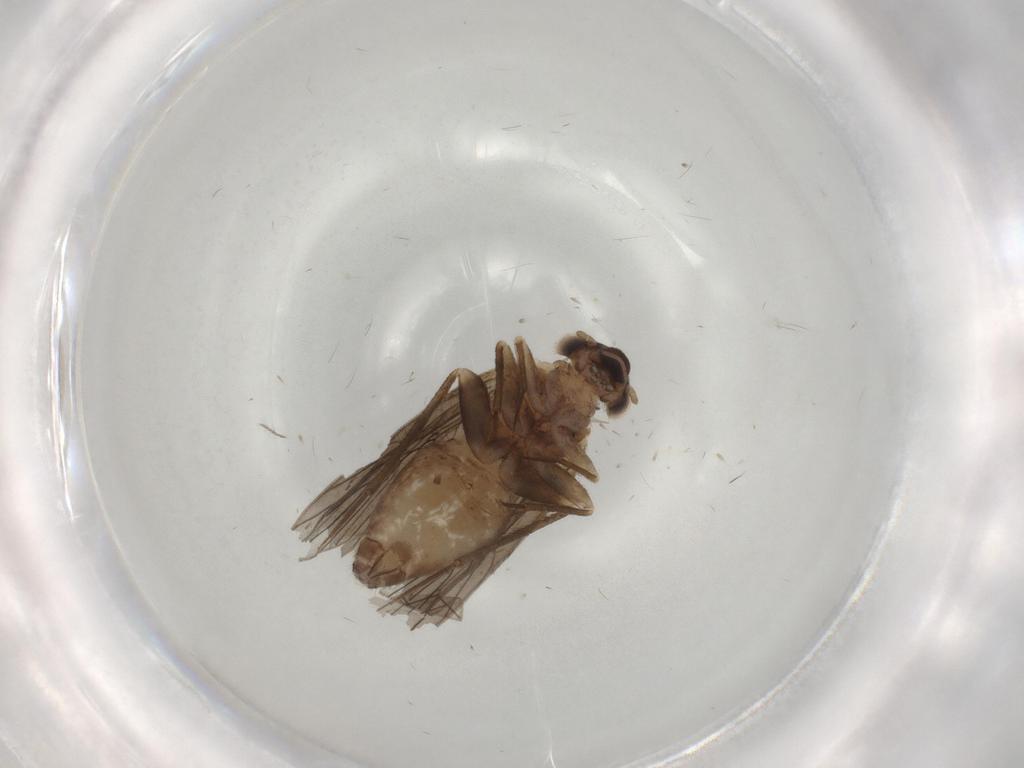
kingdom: Animalia
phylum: Arthropoda
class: Insecta
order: Psocodea
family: Lepidopsocidae
